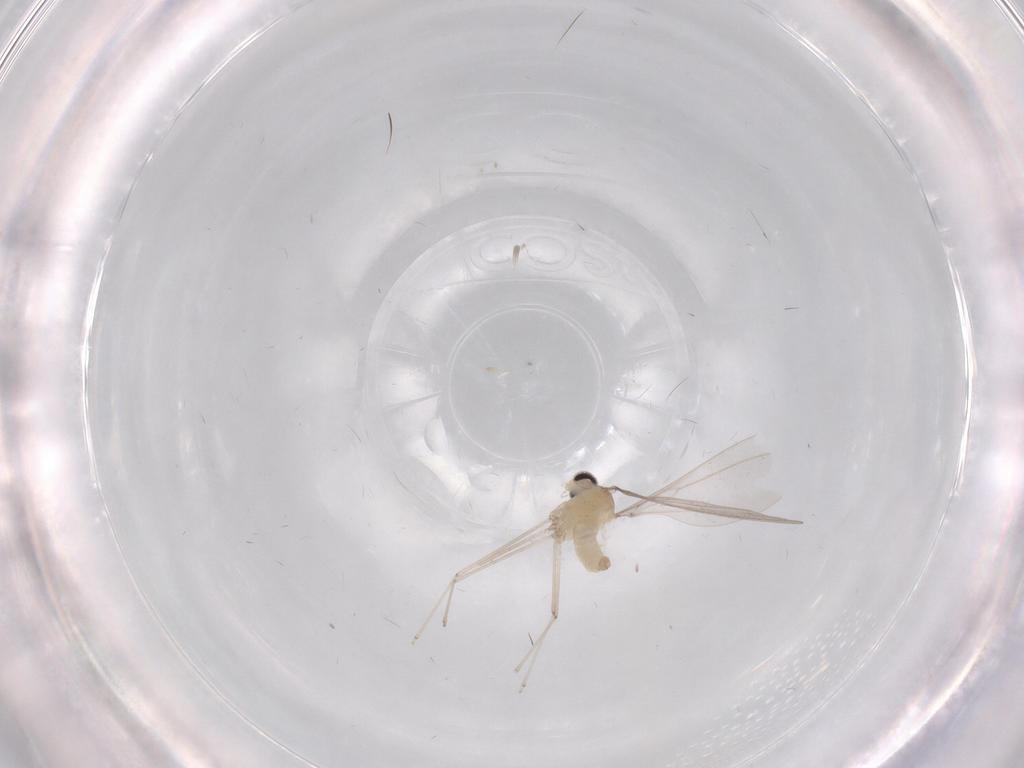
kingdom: Animalia
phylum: Arthropoda
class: Insecta
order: Diptera
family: Cecidomyiidae
